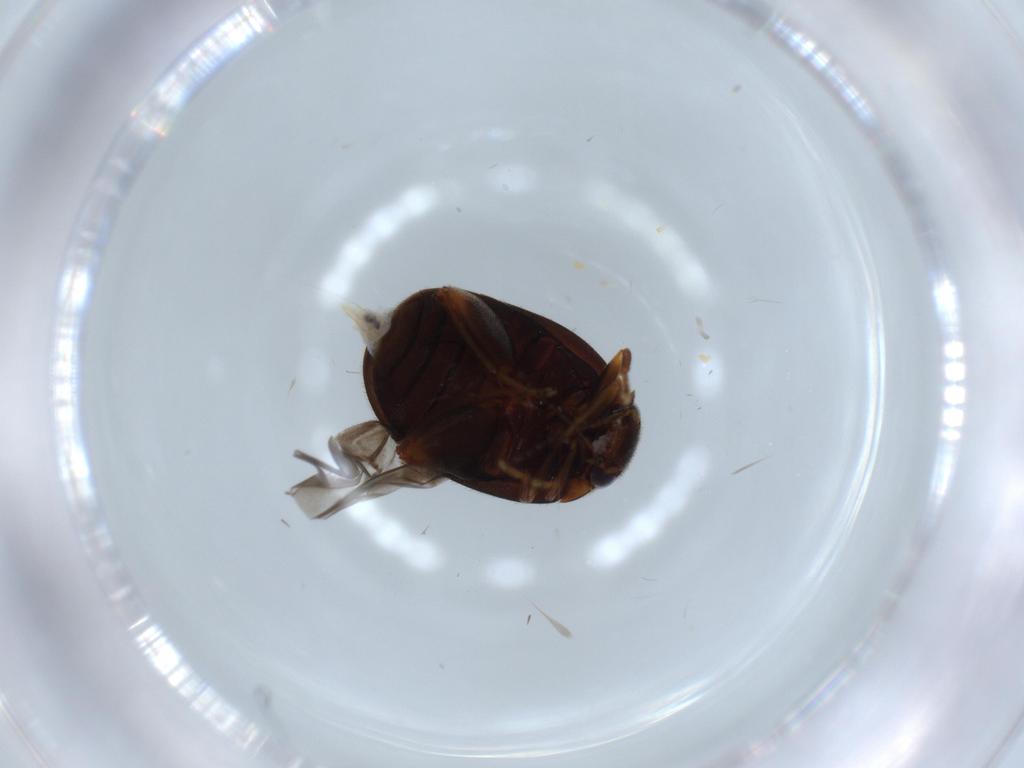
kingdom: Animalia
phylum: Arthropoda
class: Insecta
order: Coleoptera
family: Scirtidae
